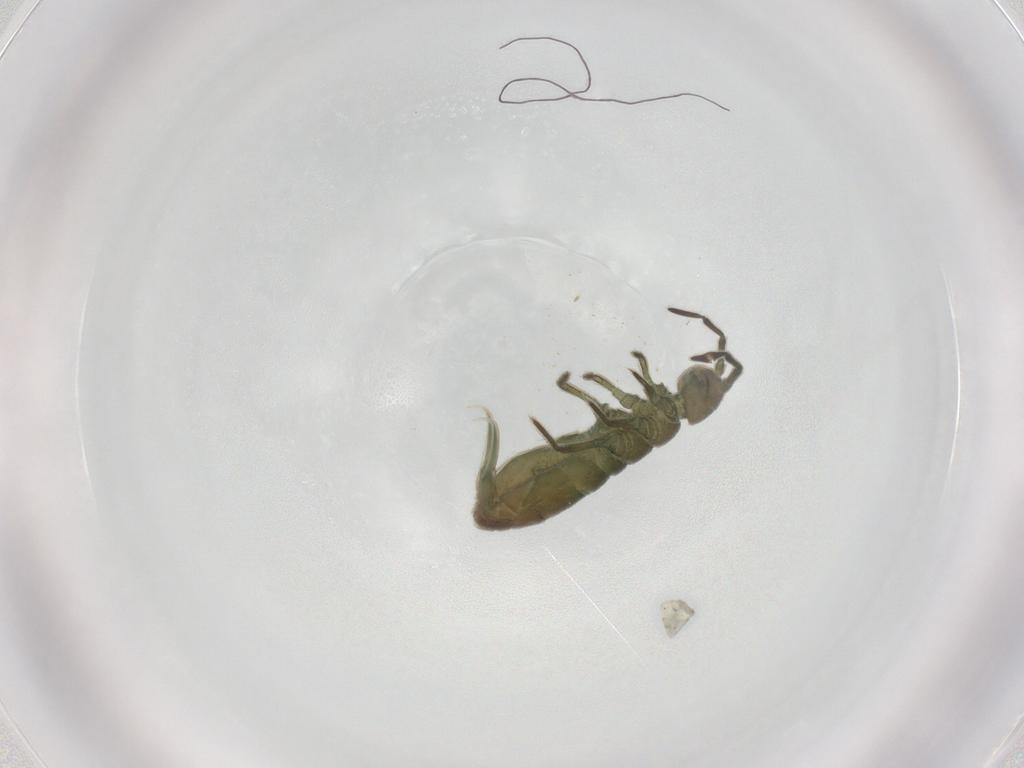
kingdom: Animalia
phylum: Arthropoda
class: Collembola
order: Entomobryomorpha
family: Isotomidae
